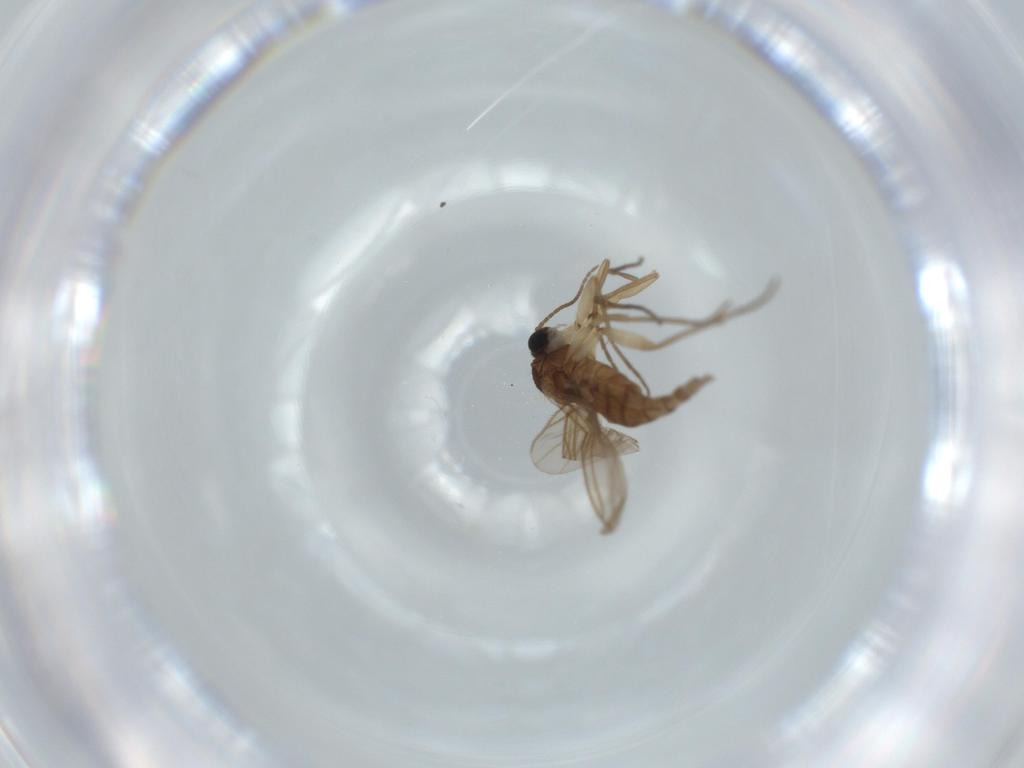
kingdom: Animalia
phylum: Arthropoda
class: Insecta
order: Diptera
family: Sciaridae
